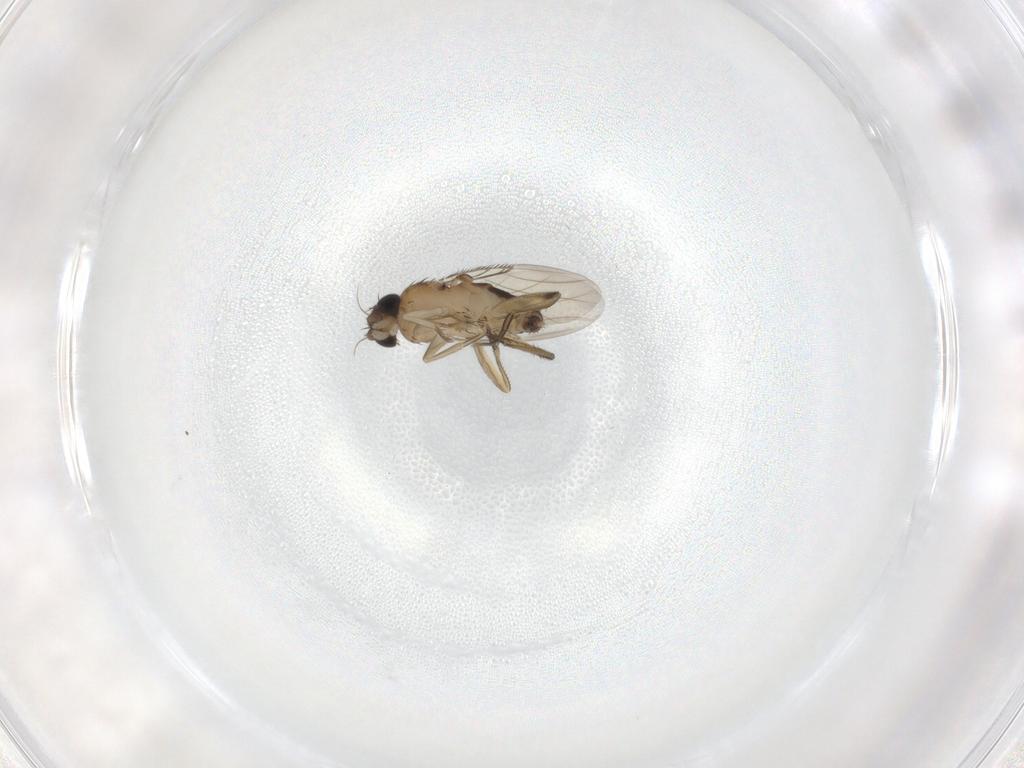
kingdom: Animalia
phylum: Arthropoda
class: Insecta
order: Diptera
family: Phoridae
